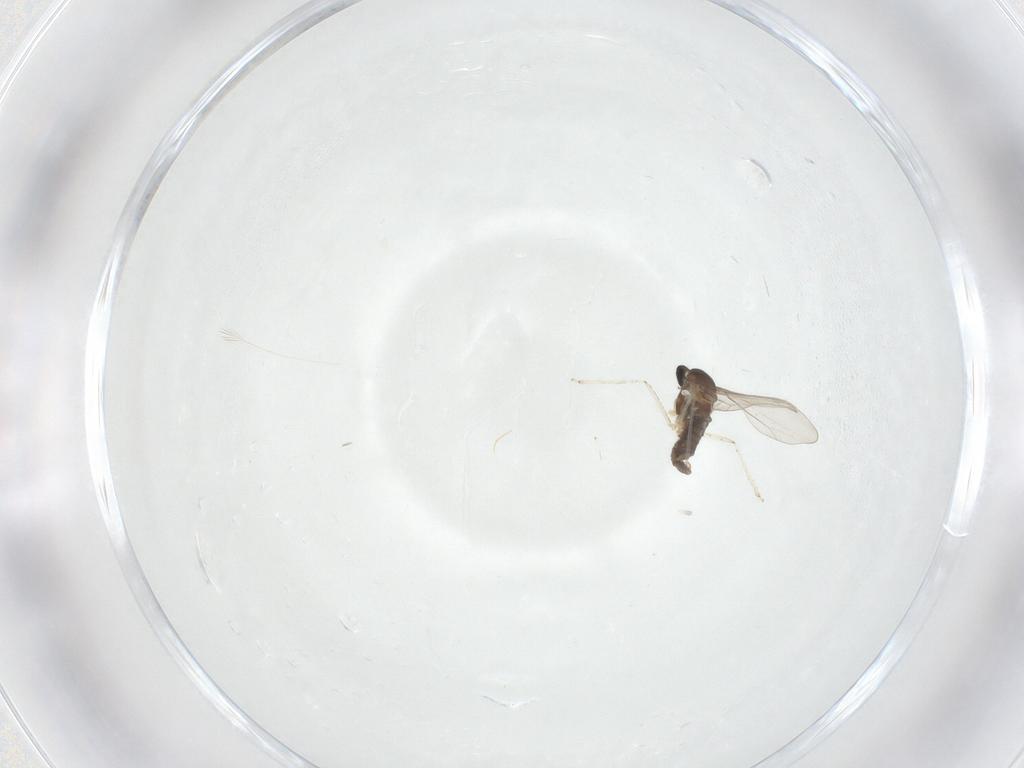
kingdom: Animalia
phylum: Arthropoda
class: Insecta
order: Diptera
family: Cecidomyiidae
